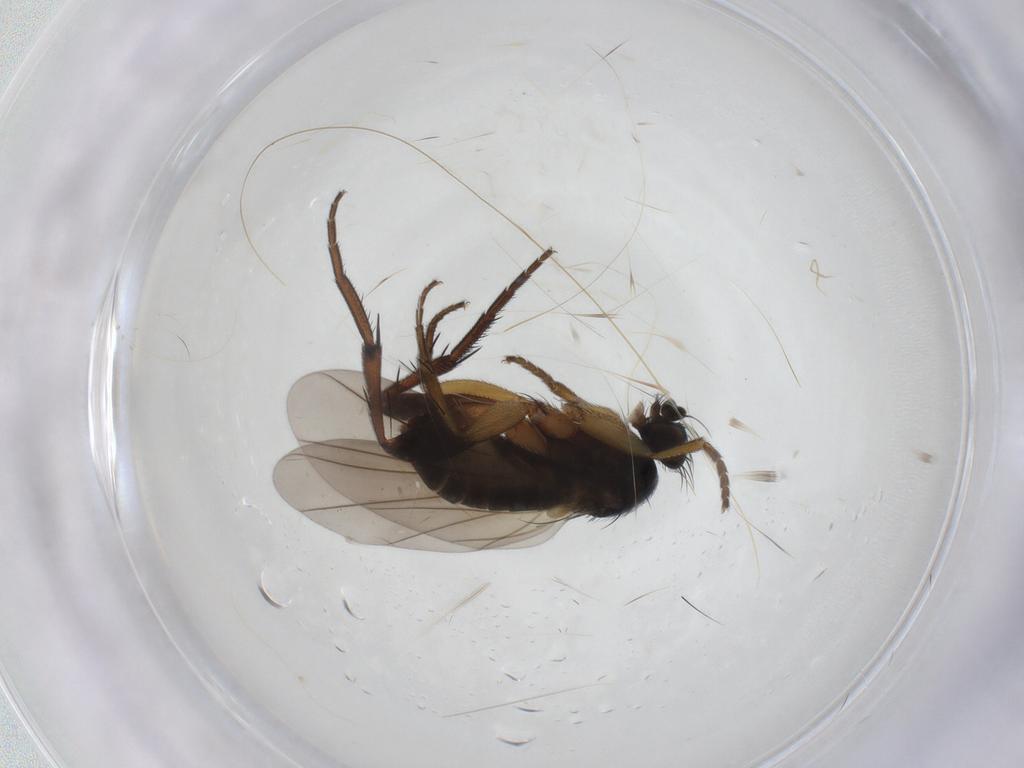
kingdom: Animalia
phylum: Arthropoda
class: Insecta
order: Diptera
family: Phoridae
